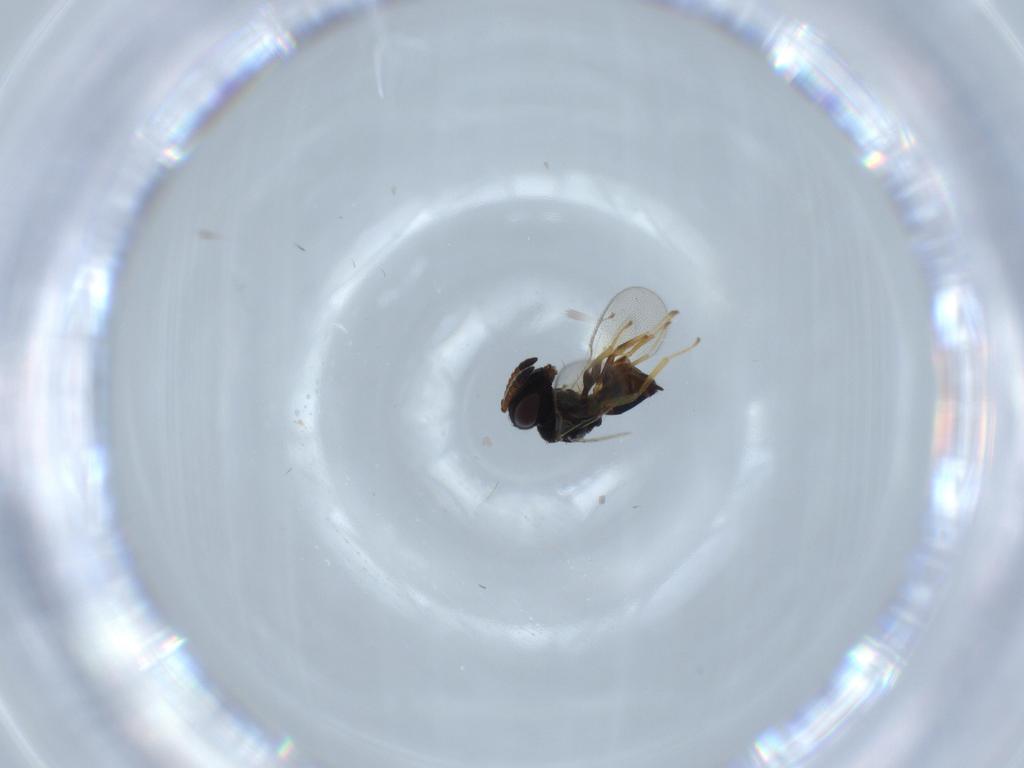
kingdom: Animalia
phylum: Arthropoda
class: Insecta
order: Hymenoptera
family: Pteromalidae
